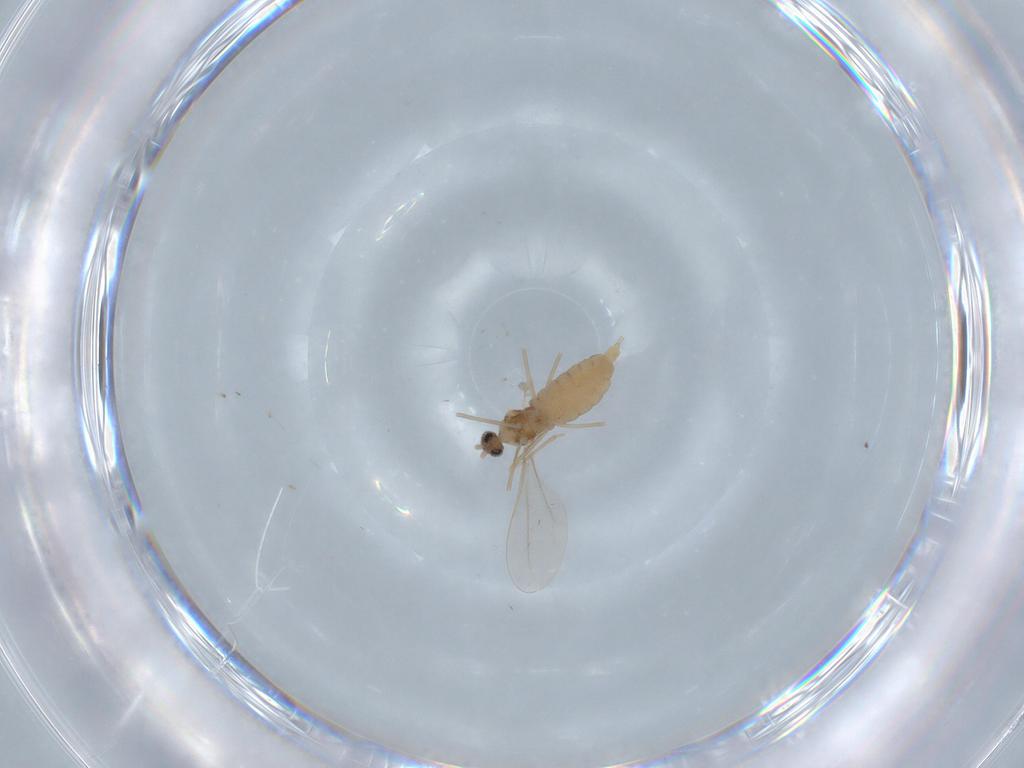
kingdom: Animalia
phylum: Arthropoda
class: Insecta
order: Diptera
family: Cecidomyiidae
